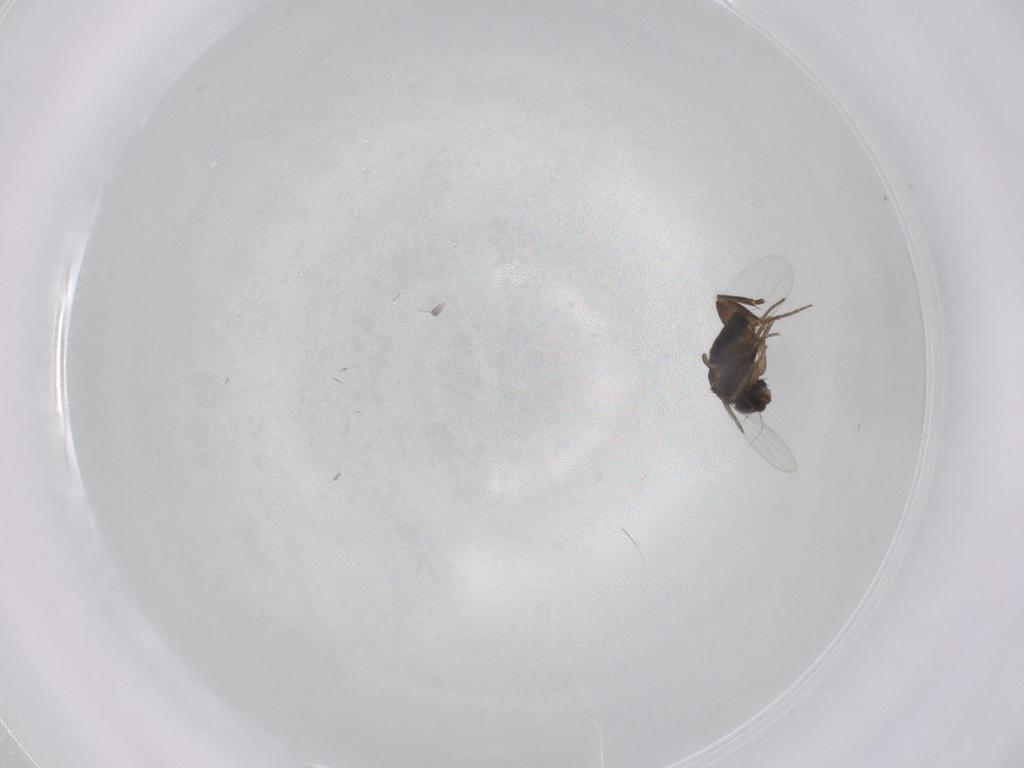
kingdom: Animalia
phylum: Arthropoda
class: Insecta
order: Diptera
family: Phoridae
